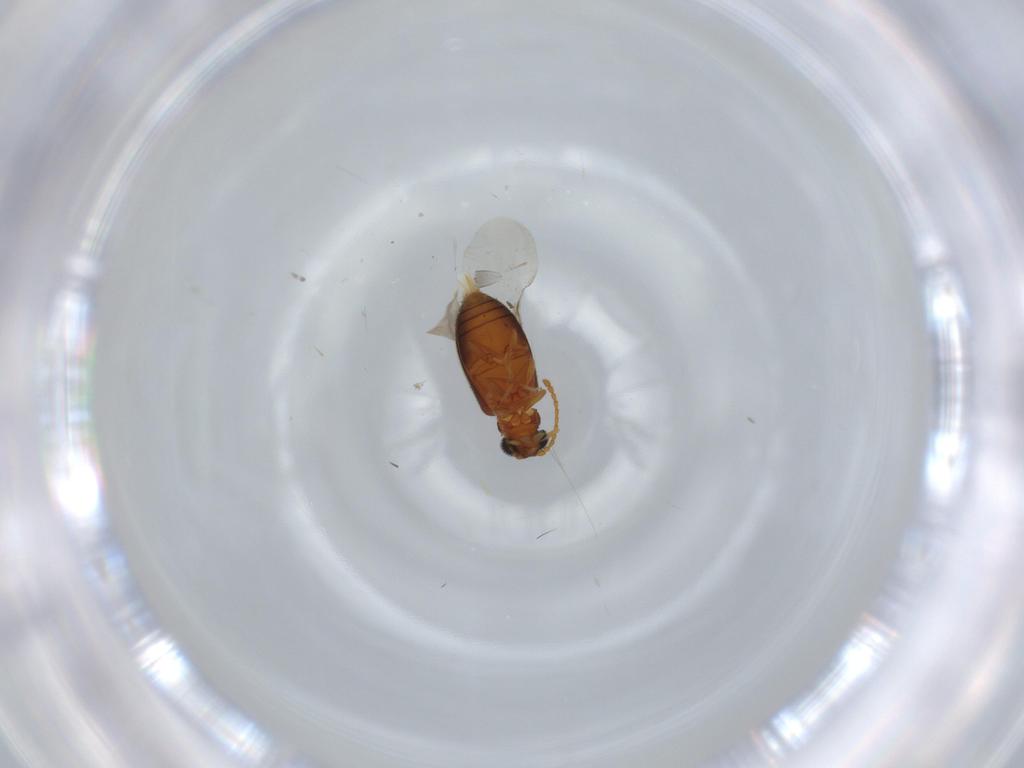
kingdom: Animalia
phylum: Arthropoda
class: Insecta
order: Coleoptera
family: Aderidae
